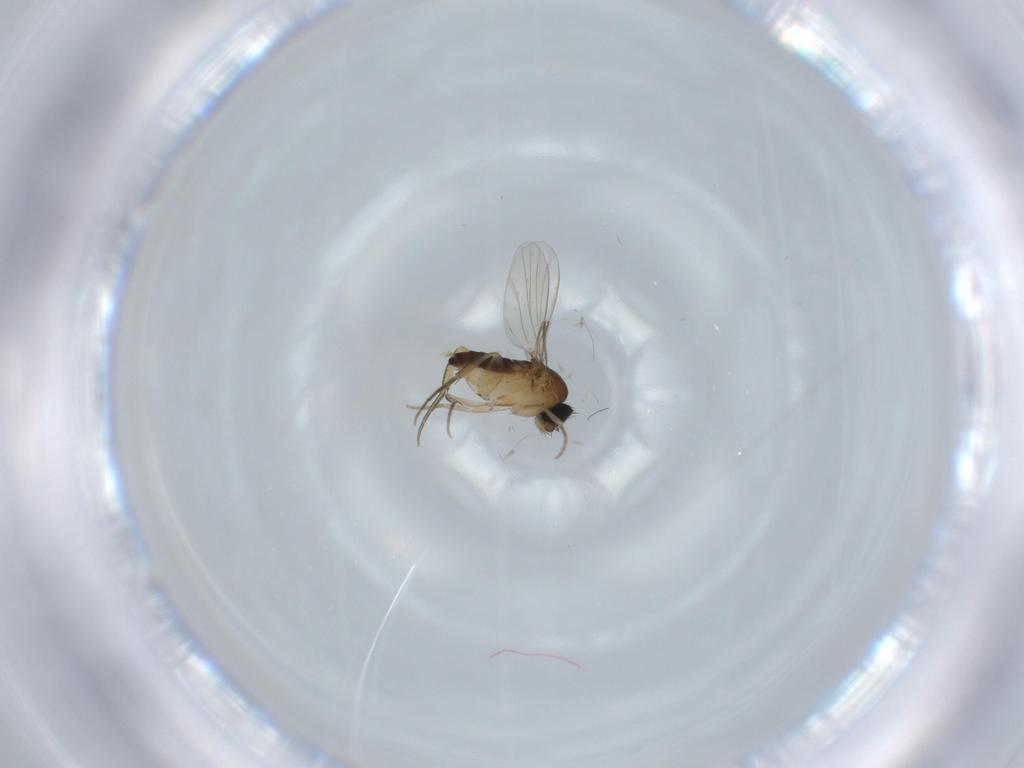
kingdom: Animalia
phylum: Arthropoda
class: Insecta
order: Diptera
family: Phoridae
